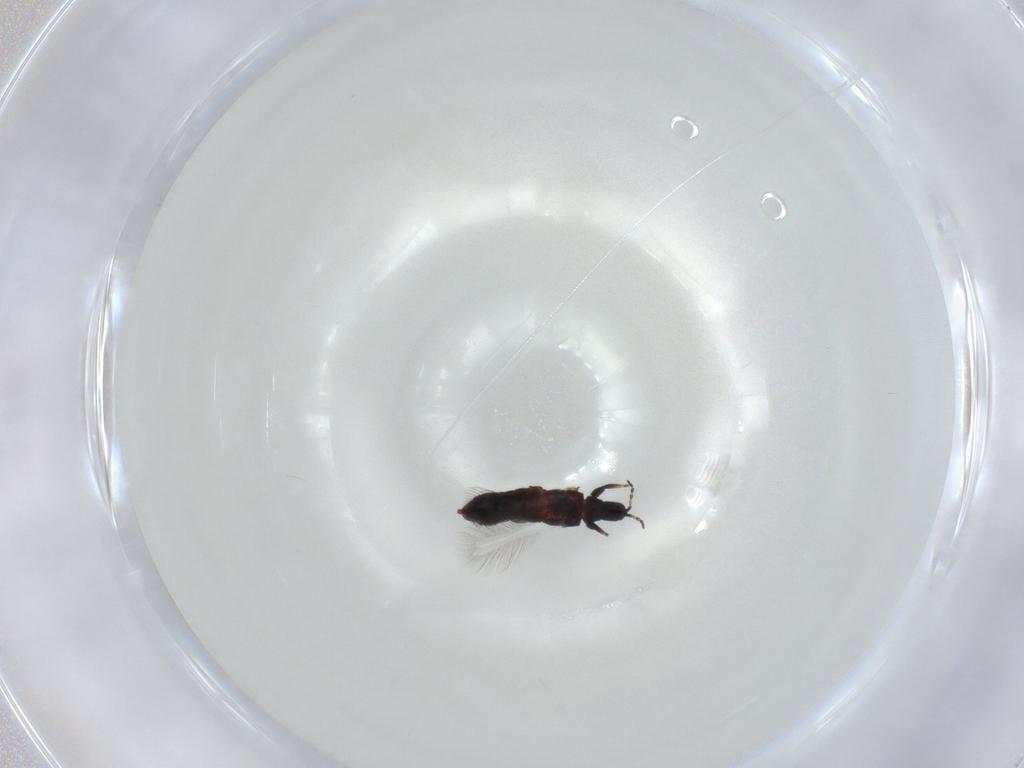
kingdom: Animalia
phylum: Arthropoda
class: Insecta
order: Thysanoptera
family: Phlaeothripidae
